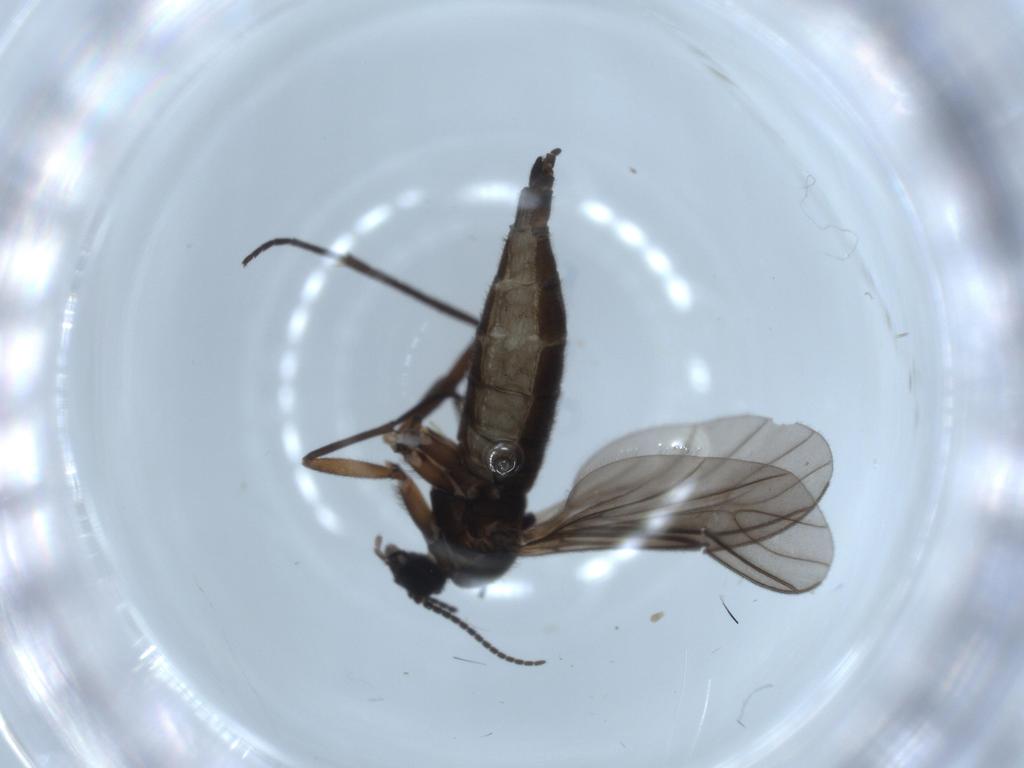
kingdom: Animalia
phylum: Arthropoda
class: Insecta
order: Diptera
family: Sciaridae
